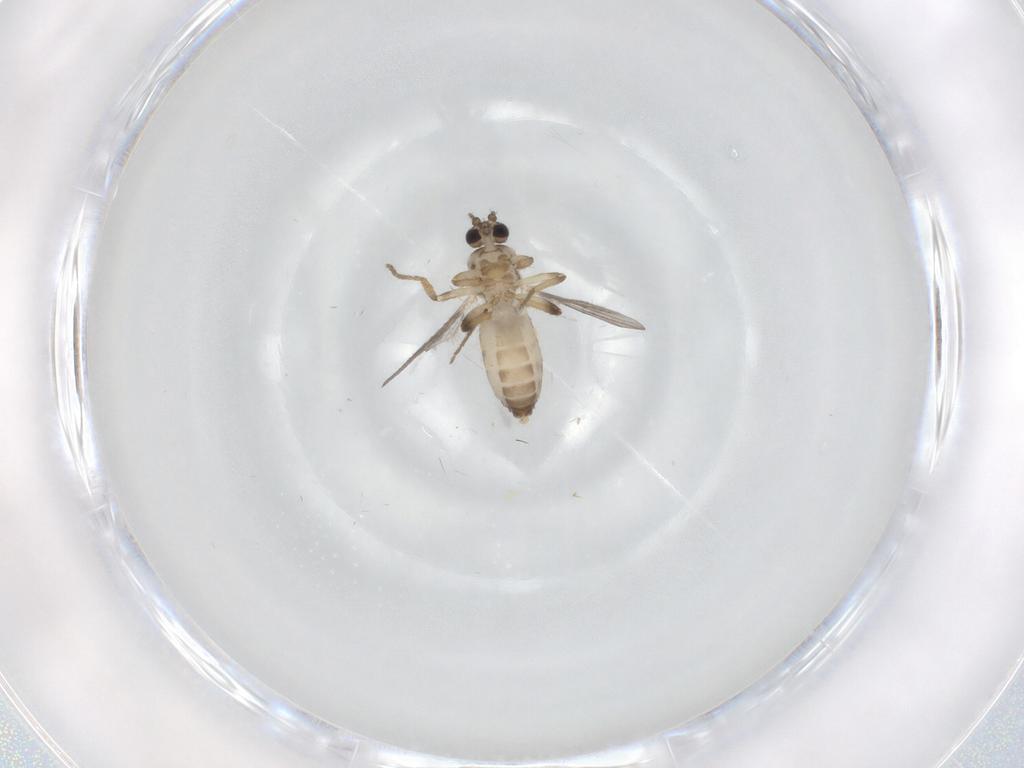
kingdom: Animalia
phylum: Arthropoda
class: Insecta
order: Diptera
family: Ceratopogonidae
